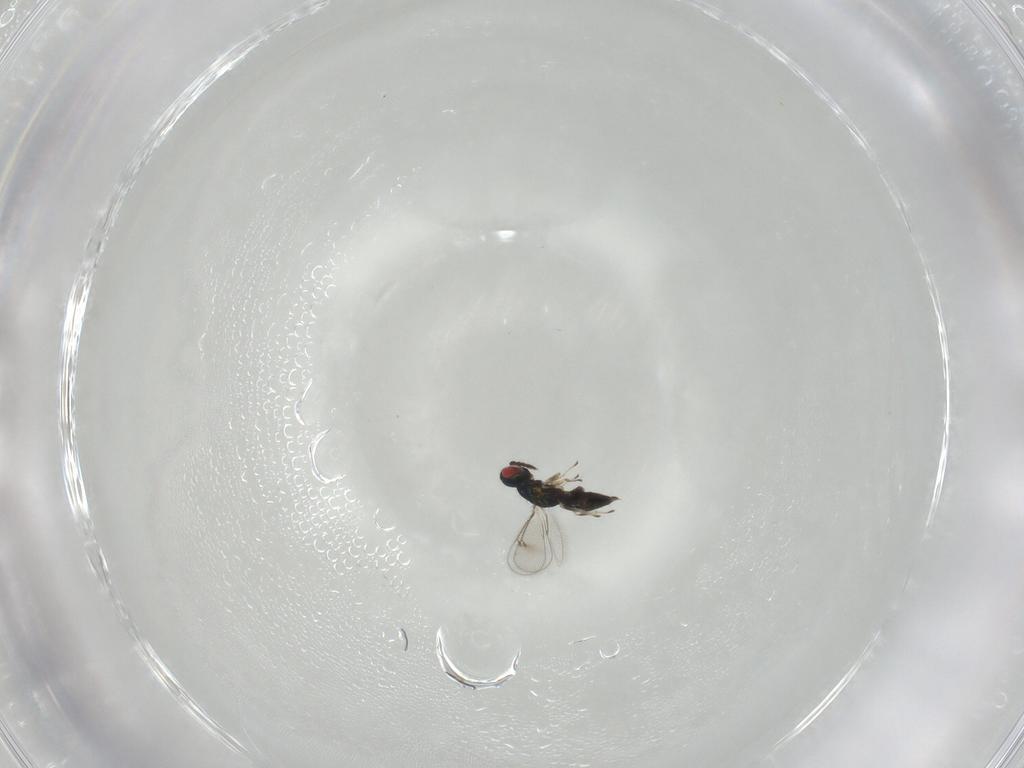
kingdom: Animalia
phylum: Arthropoda
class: Insecta
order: Hymenoptera
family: Eulophidae
